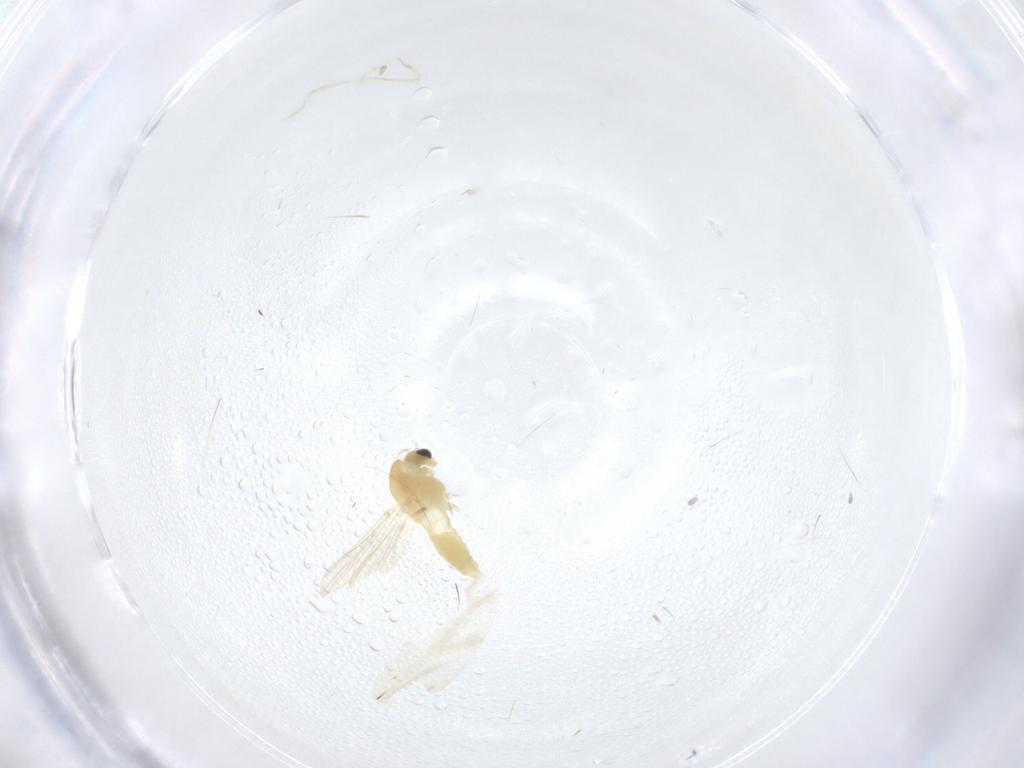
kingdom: Animalia
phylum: Arthropoda
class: Insecta
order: Diptera
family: Chironomidae
